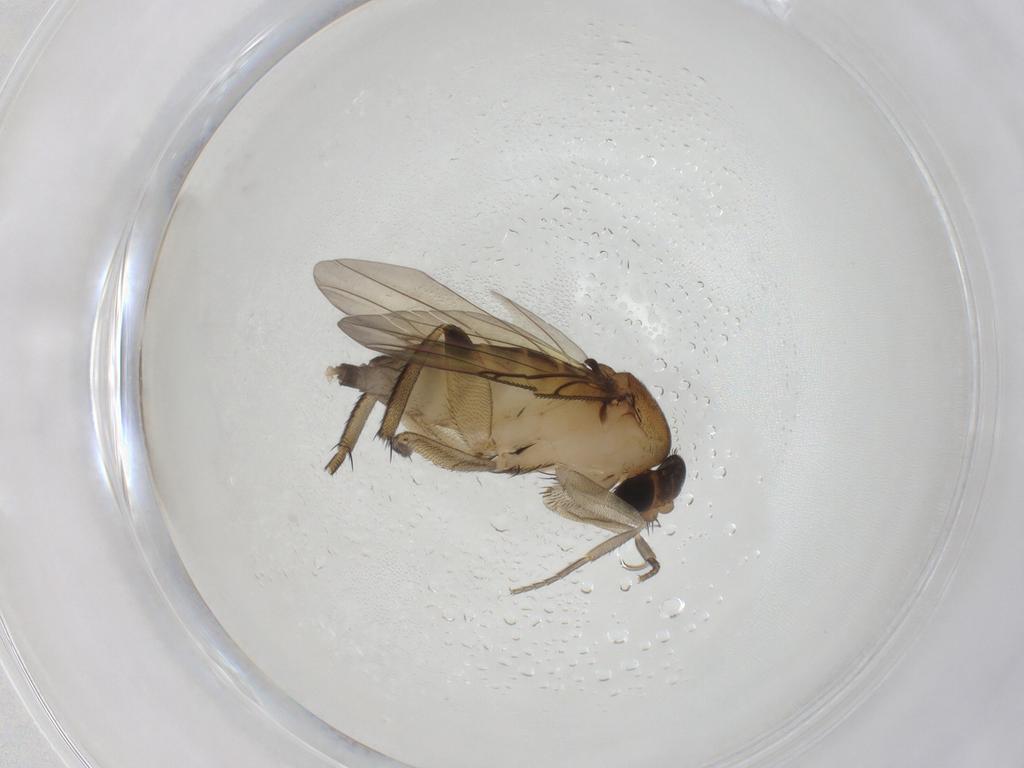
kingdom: Animalia
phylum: Arthropoda
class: Insecta
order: Diptera
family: Phoridae
